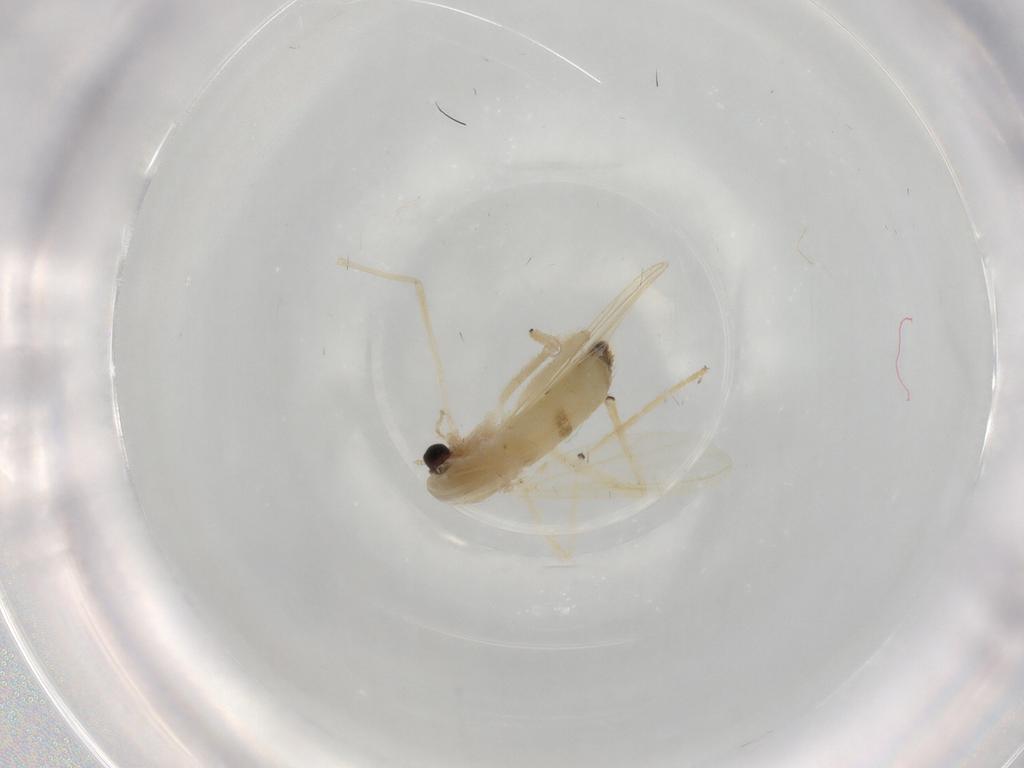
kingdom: Animalia
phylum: Arthropoda
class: Insecta
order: Diptera
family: Chironomidae
